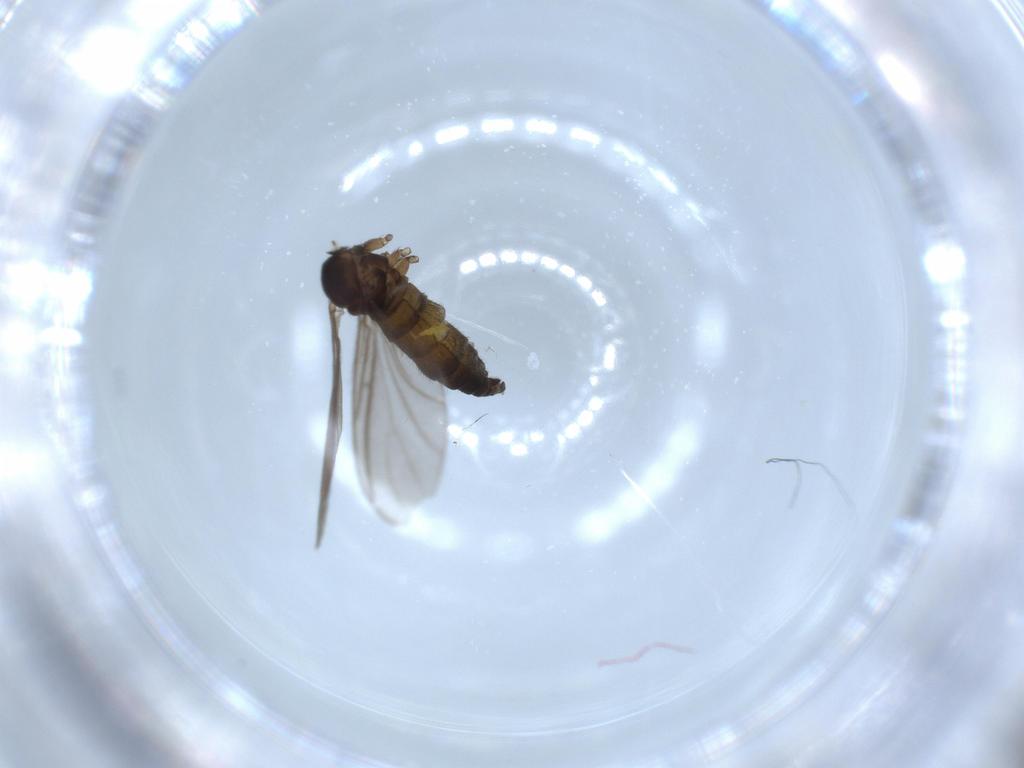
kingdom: Animalia
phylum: Arthropoda
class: Insecta
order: Diptera
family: Sciaridae
